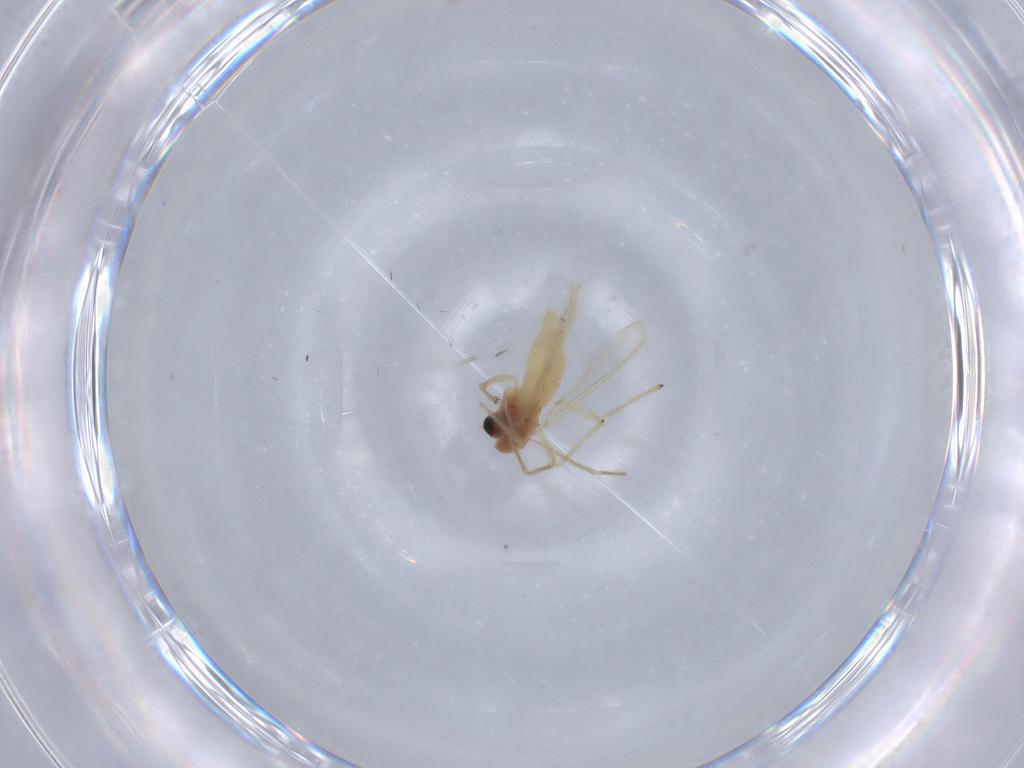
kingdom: Animalia
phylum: Arthropoda
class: Insecta
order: Diptera
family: Chironomidae
